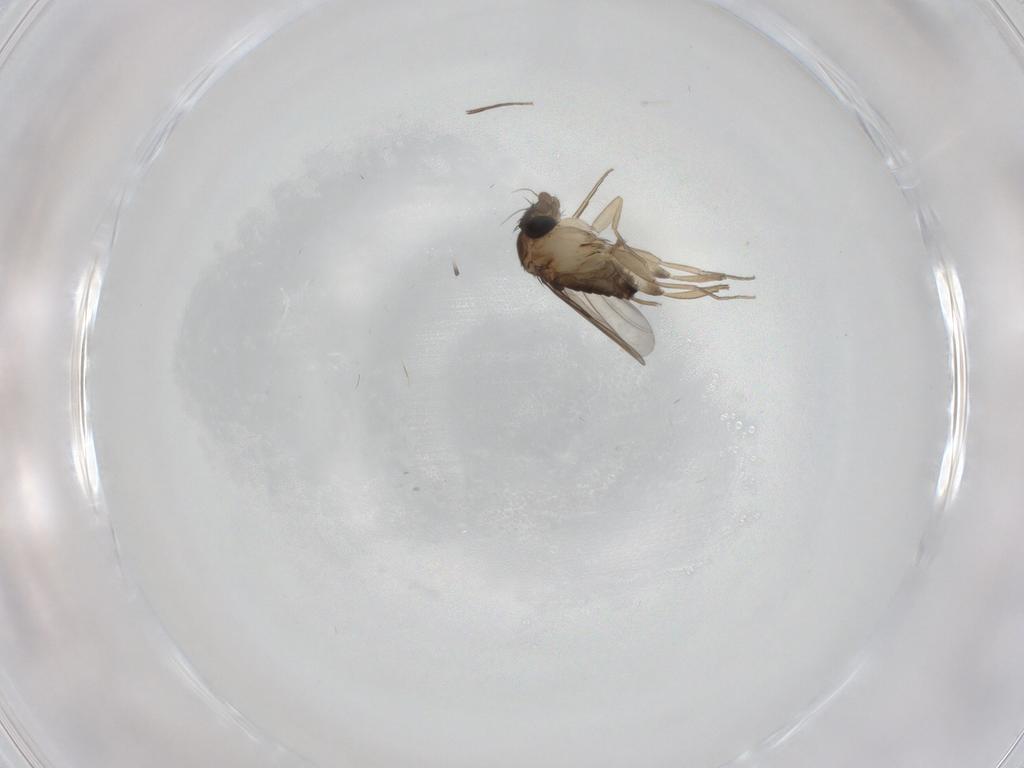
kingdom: Animalia
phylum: Arthropoda
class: Insecta
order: Diptera
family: Phoridae
